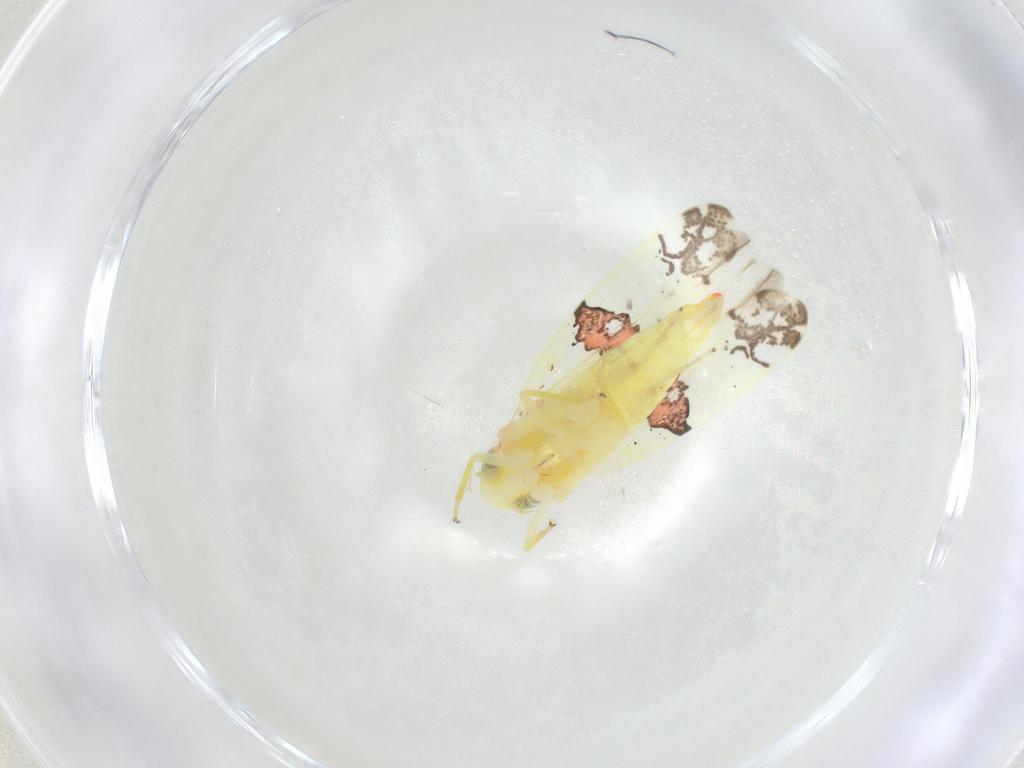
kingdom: Animalia
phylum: Arthropoda
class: Insecta
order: Hemiptera
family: Cicadellidae
